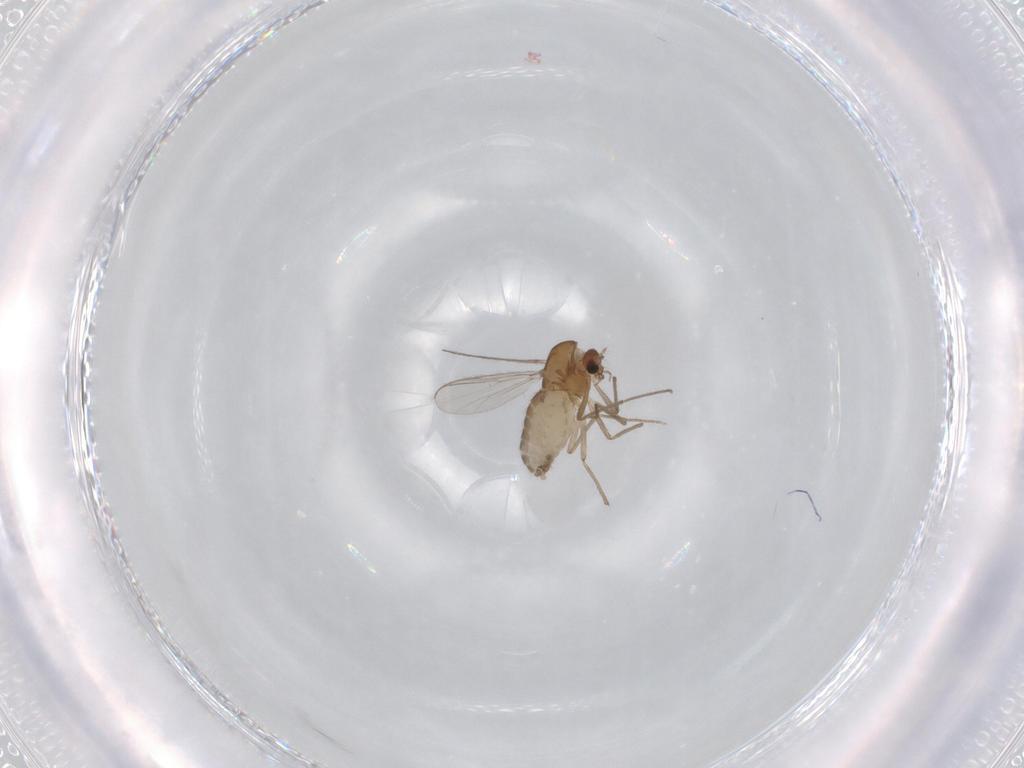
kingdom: Animalia
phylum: Arthropoda
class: Insecta
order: Diptera
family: Chironomidae
